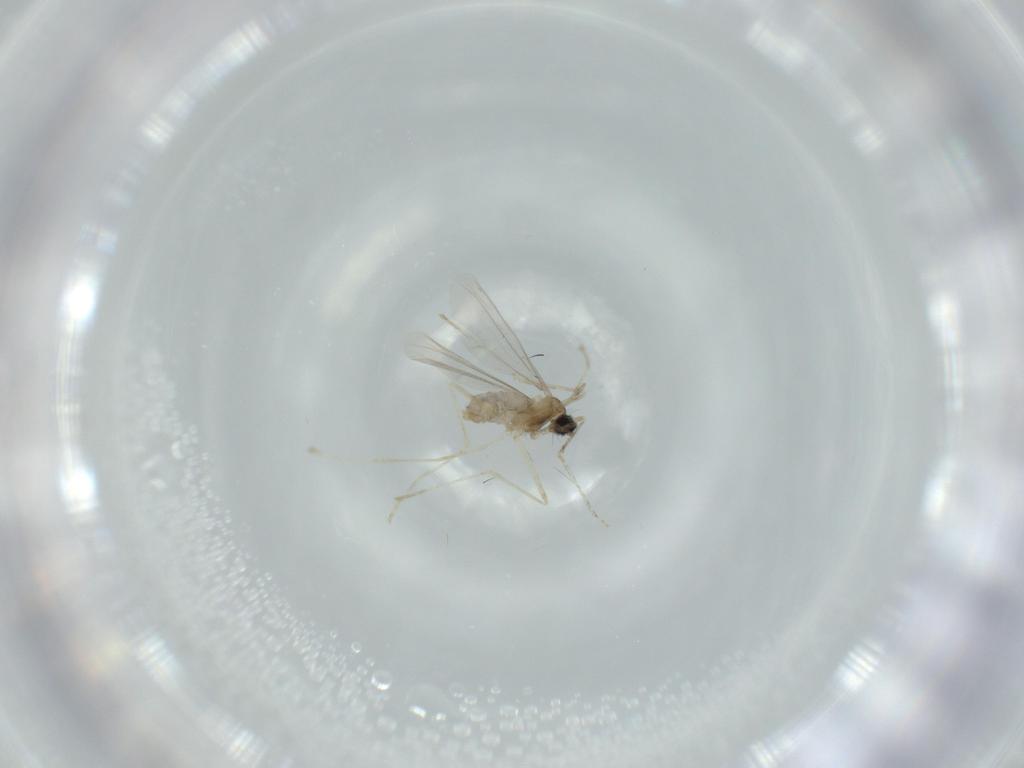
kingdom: Animalia
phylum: Arthropoda
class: Insecta
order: Diptera
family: Cecidomyiidae
